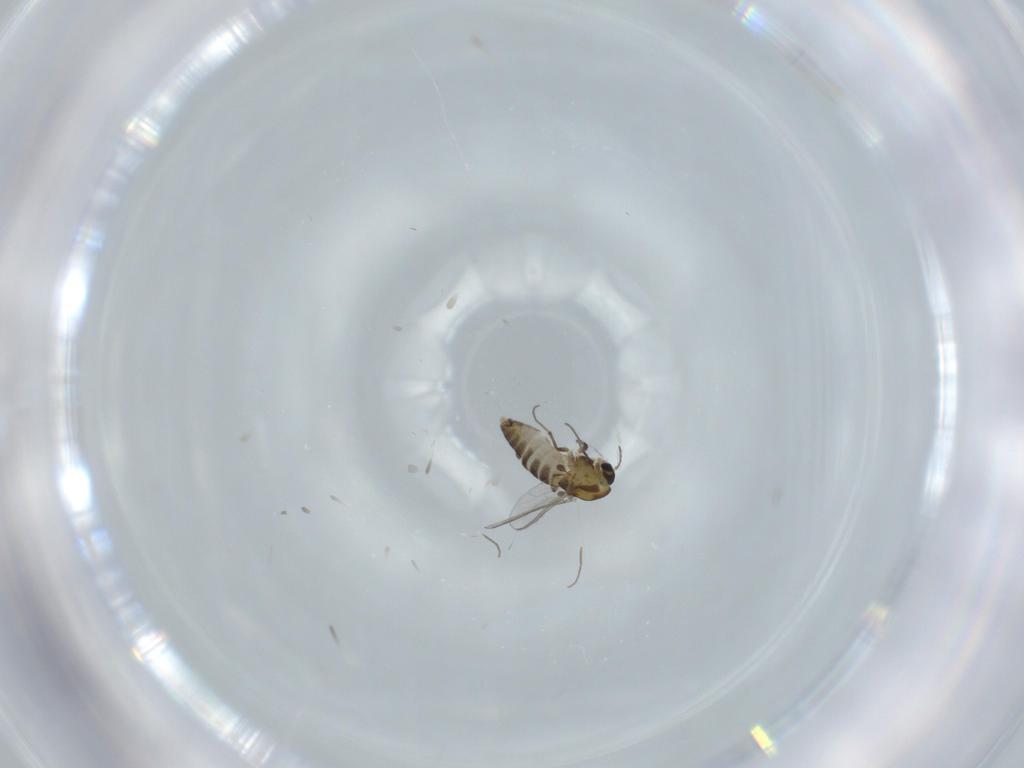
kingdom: Animalia
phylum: Arthropoda
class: Insecta
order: Diptera
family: Chironomidae
